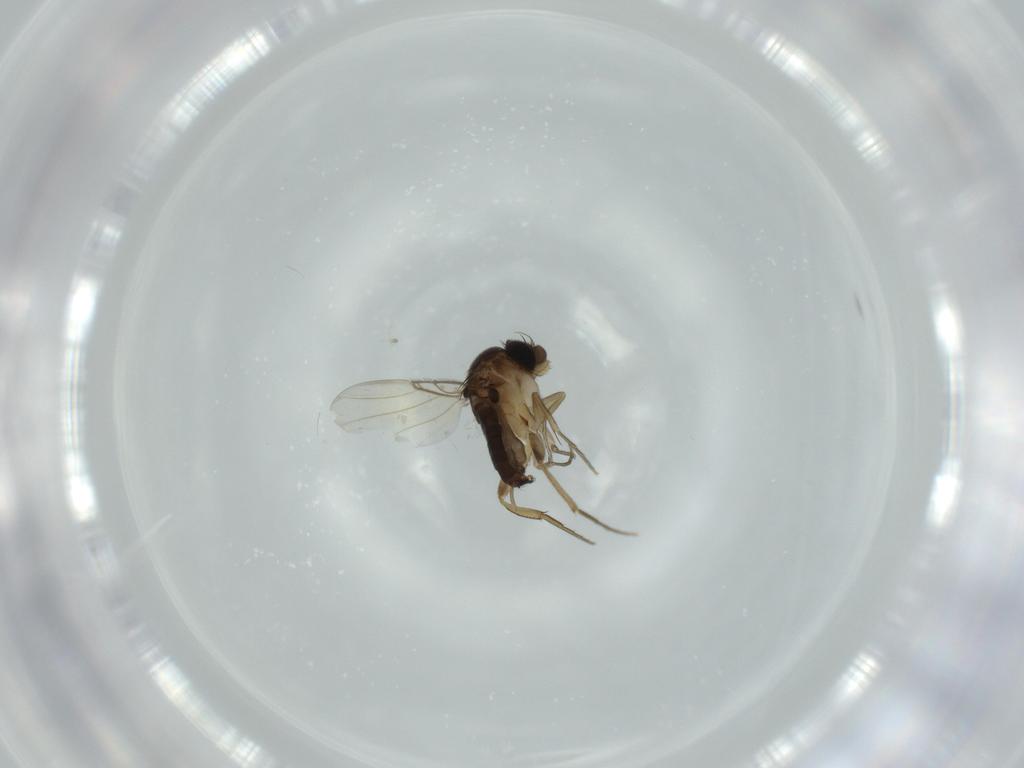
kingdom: Animalia
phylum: Arthropoda
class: Insecta
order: Diptera
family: Phoridae
